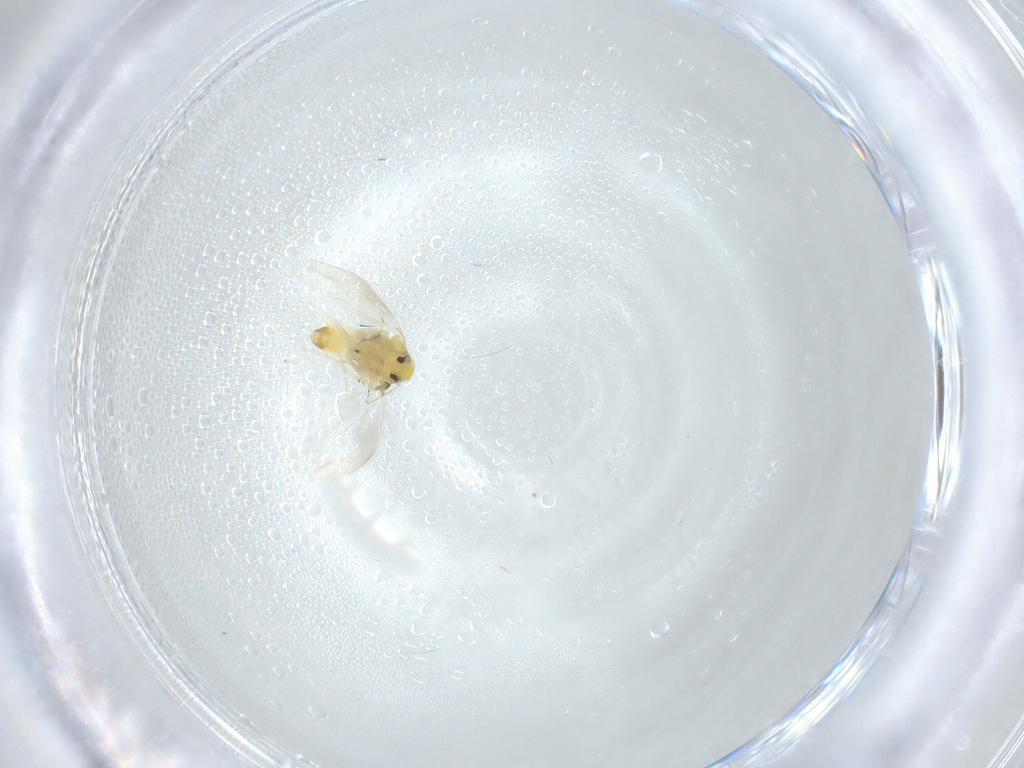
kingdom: Animalia
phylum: Arthropoda
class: Insecta
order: Hemiptera
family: Aleyrodidae
